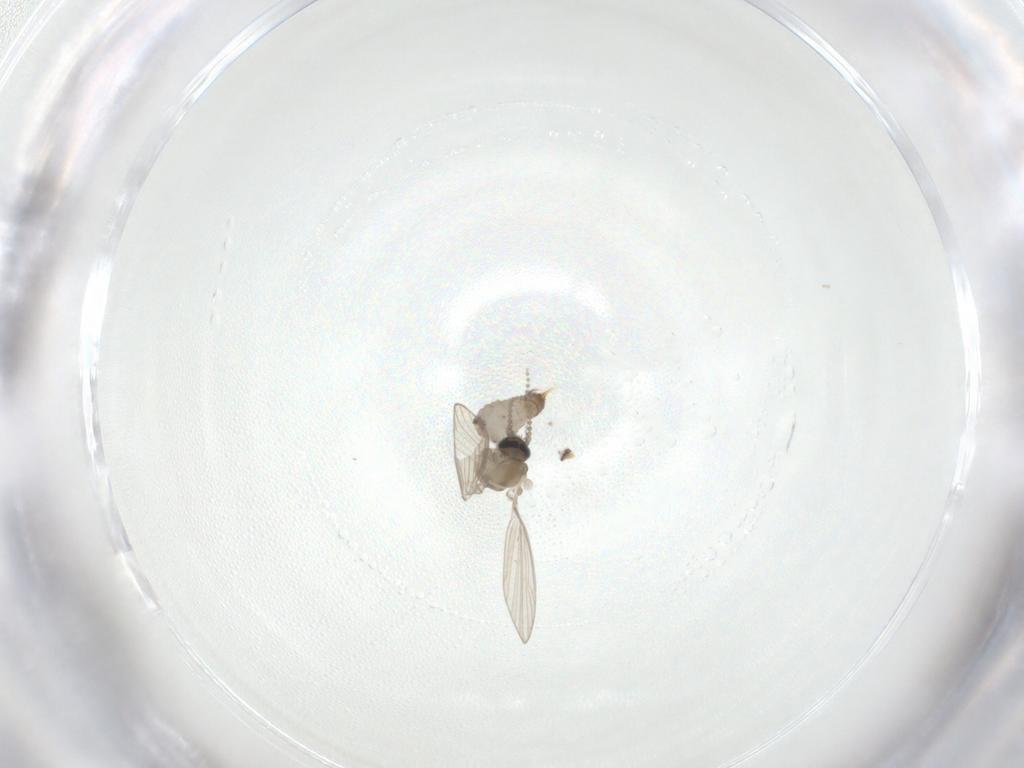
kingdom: Animalia
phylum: Arthropoda
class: Insecta
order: Diptera
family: Psychodidae
